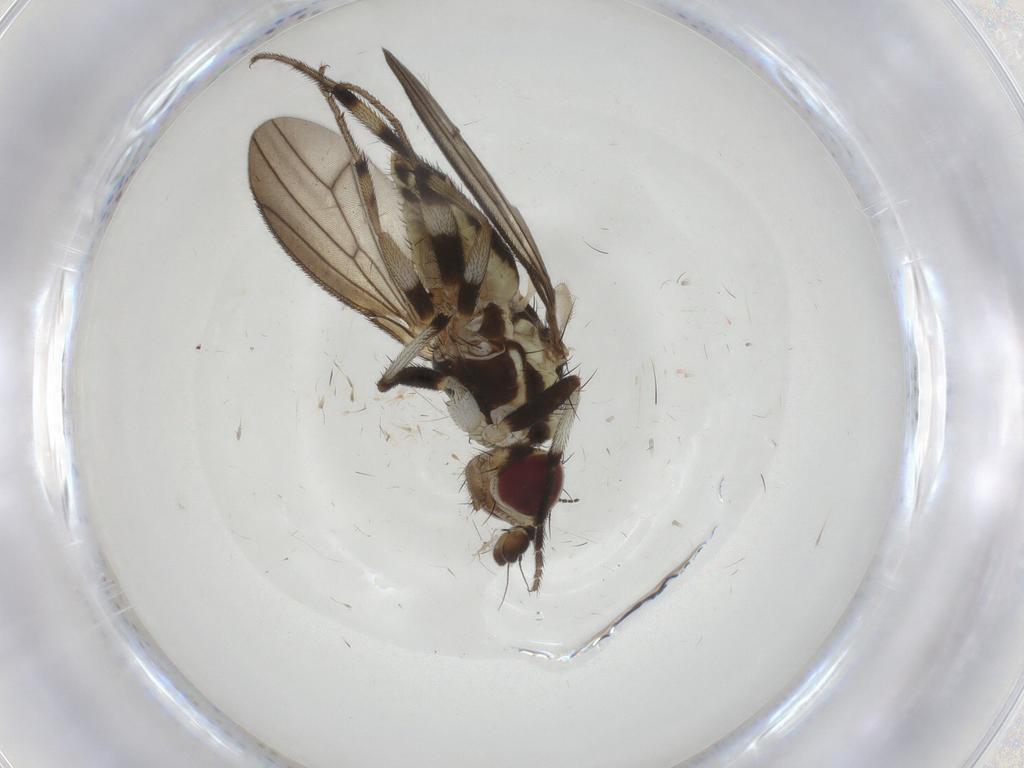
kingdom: Animalia
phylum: Arthropoda
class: Insecta
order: Diptera
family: Pseudopomyzidae
